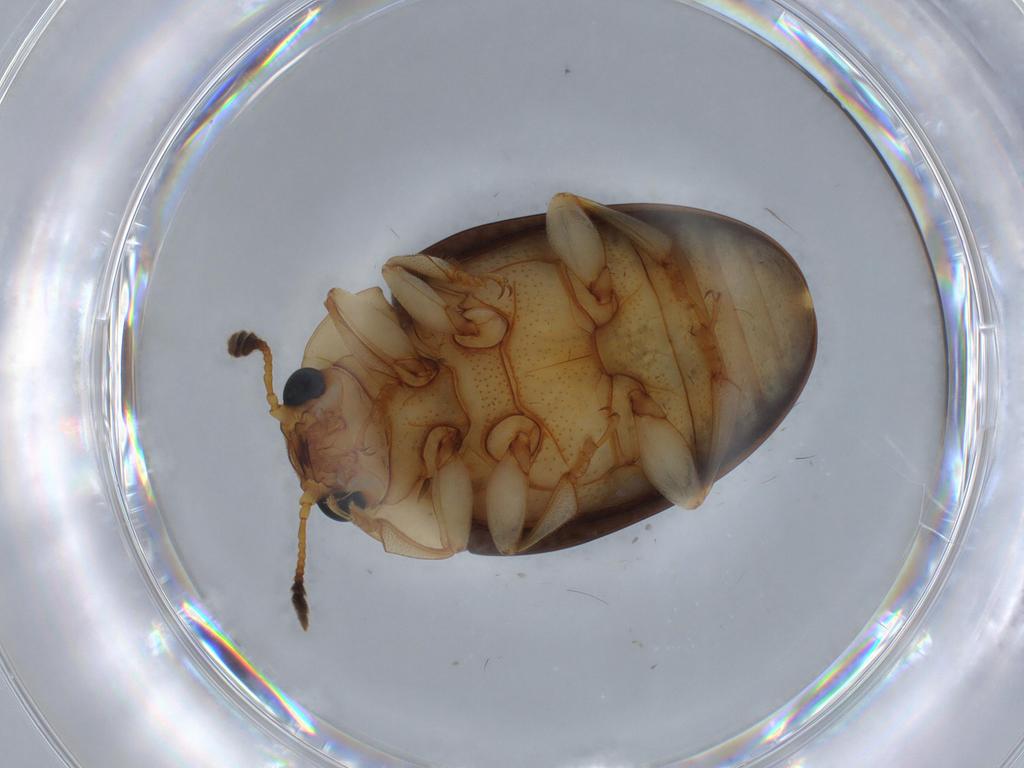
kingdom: Animalia
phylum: Arthropoda
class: Insecta
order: Coleoptera
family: Erotylidae
